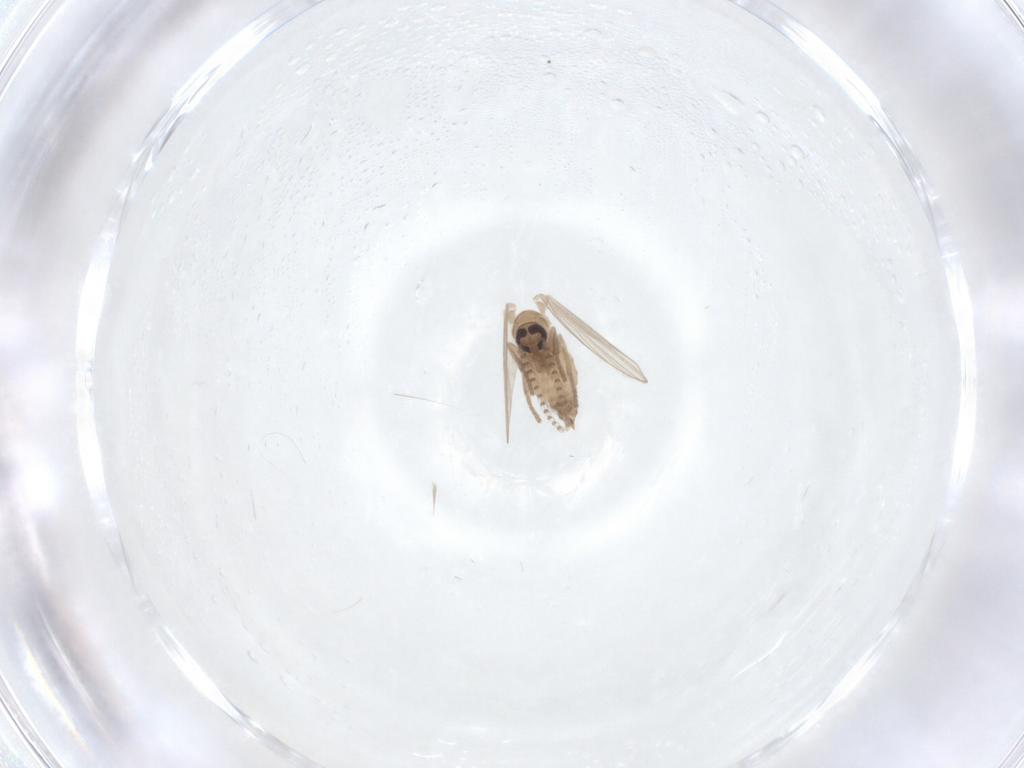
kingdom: Animalia
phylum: Arthropoda
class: Insecta
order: Diptera
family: Psychodidae
